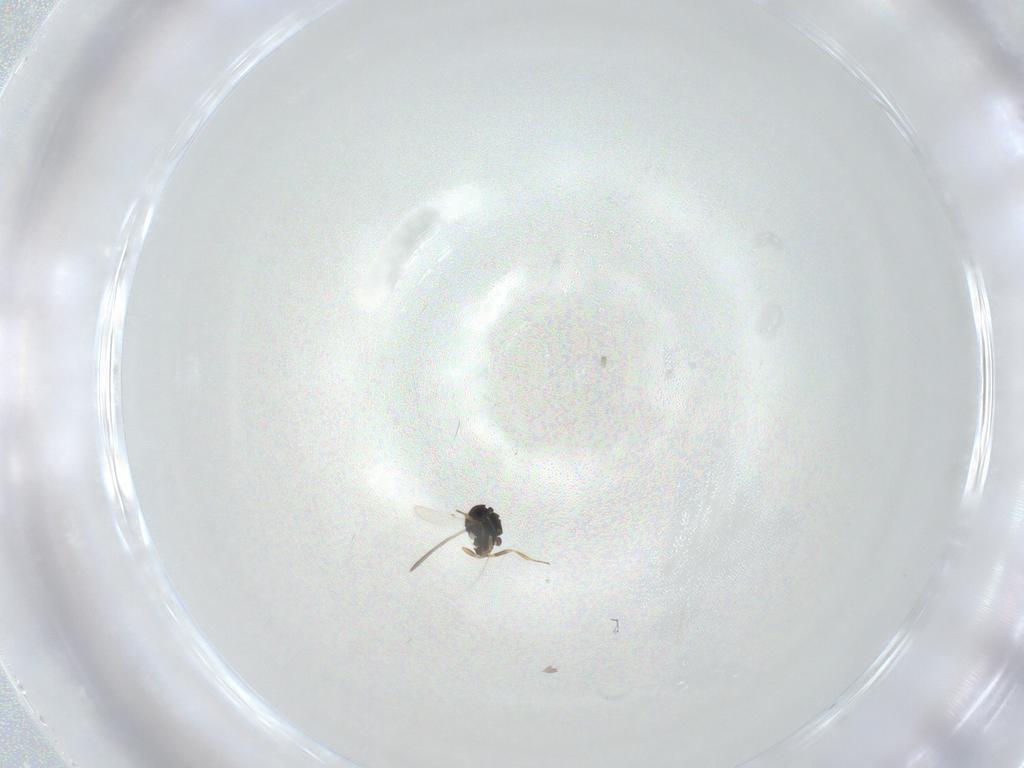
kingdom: Animalia
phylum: Arthropoda
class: Insecta
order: Hymenoptera
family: Scelionidae
